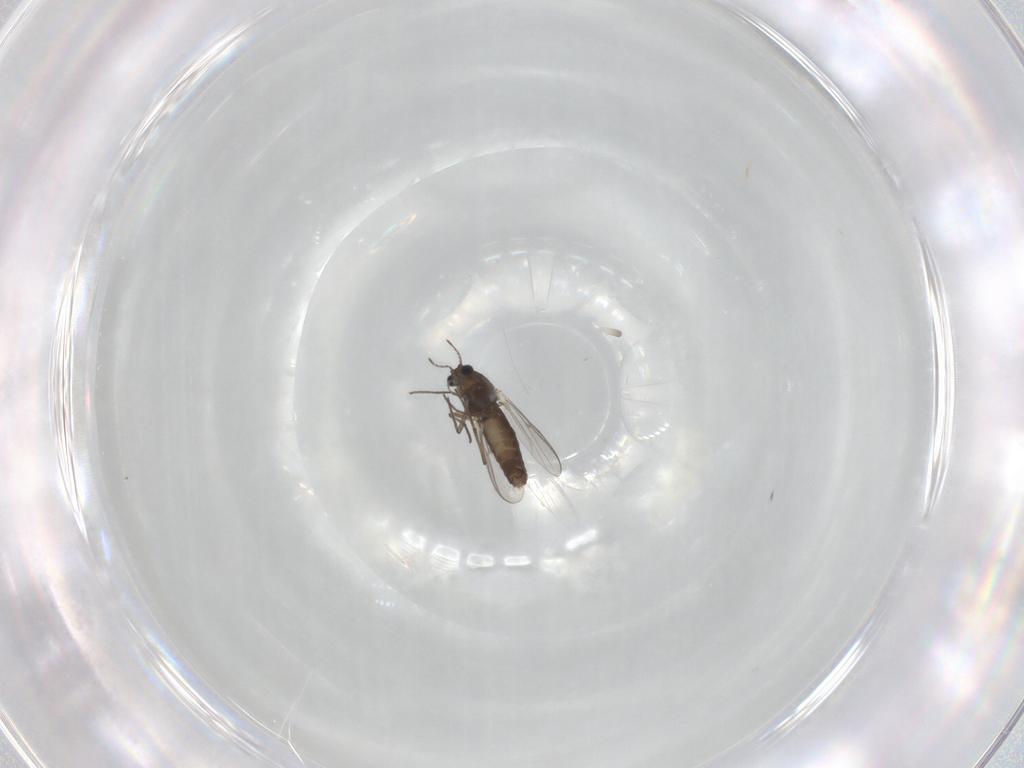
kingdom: Animalia
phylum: Arthropoda
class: Insecta
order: Diptera
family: Chironomidae
